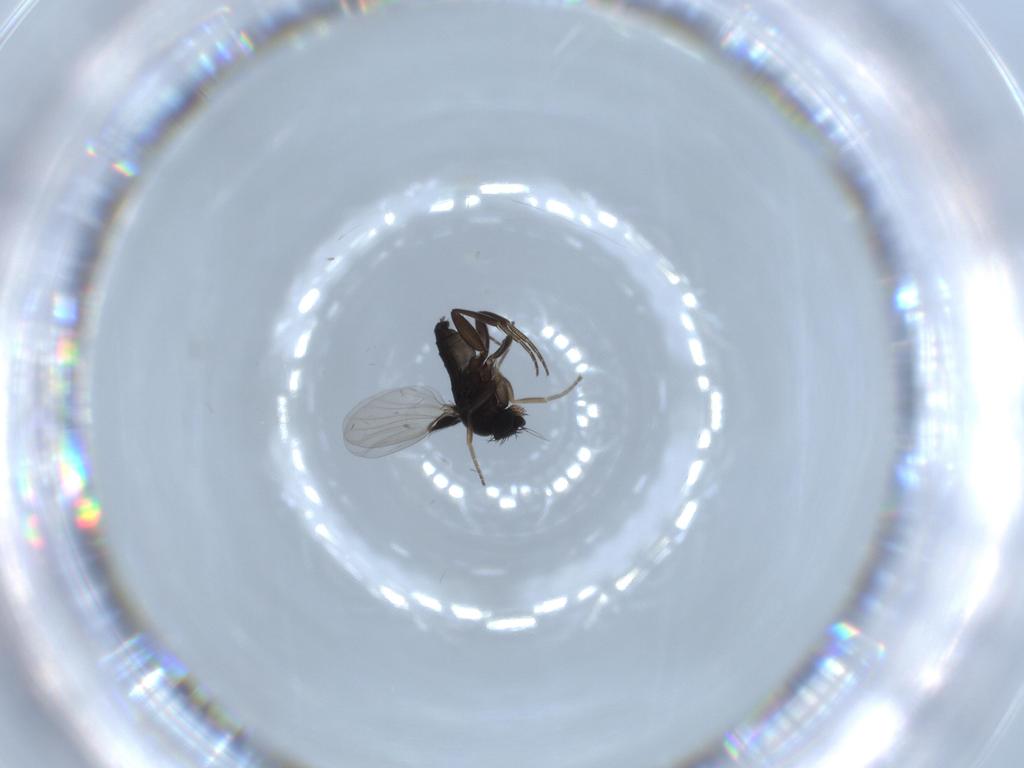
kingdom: Animalia
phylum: Arthropoda
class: Insecta
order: Diptera
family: Phoridae
